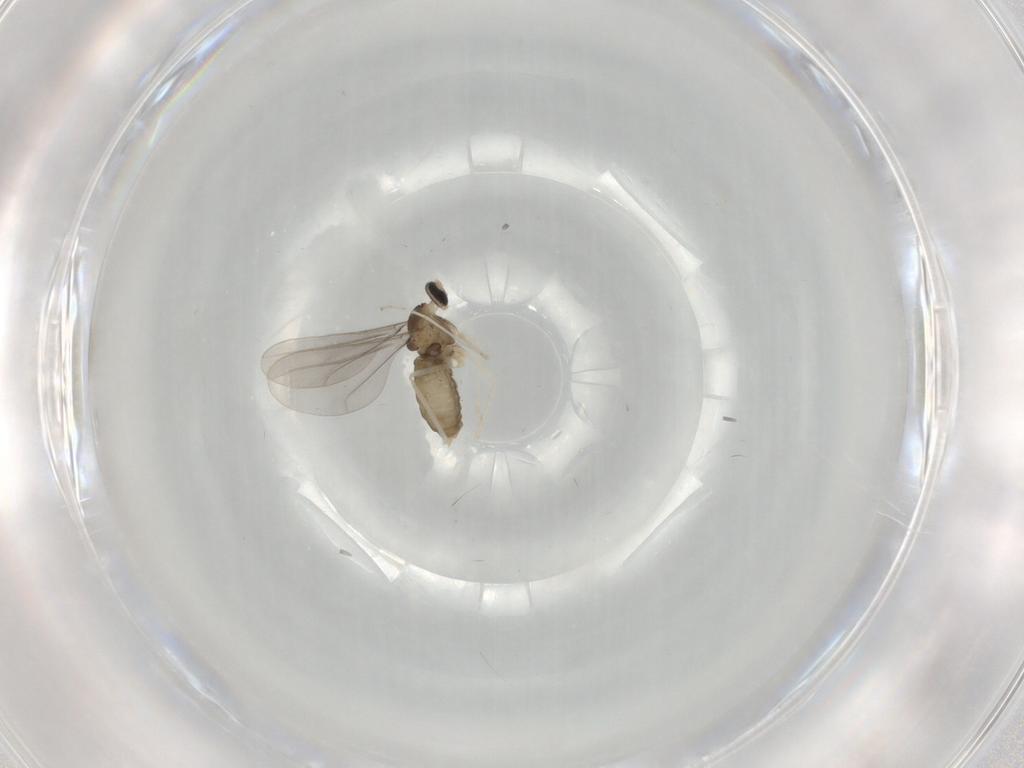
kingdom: Animalia
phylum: Arthropoda
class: Insecta
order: Diptera
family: Cecidomyiidae
